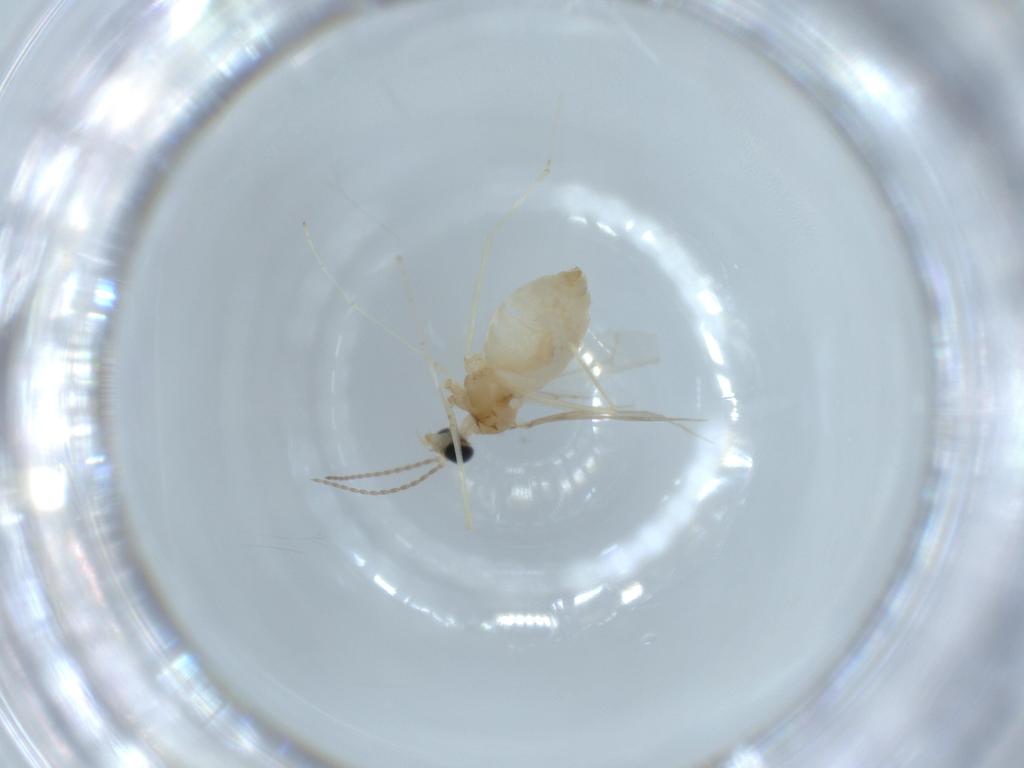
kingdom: Animalia
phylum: Arthropoda
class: Insecta
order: Diptera
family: Cecidomyiidae
